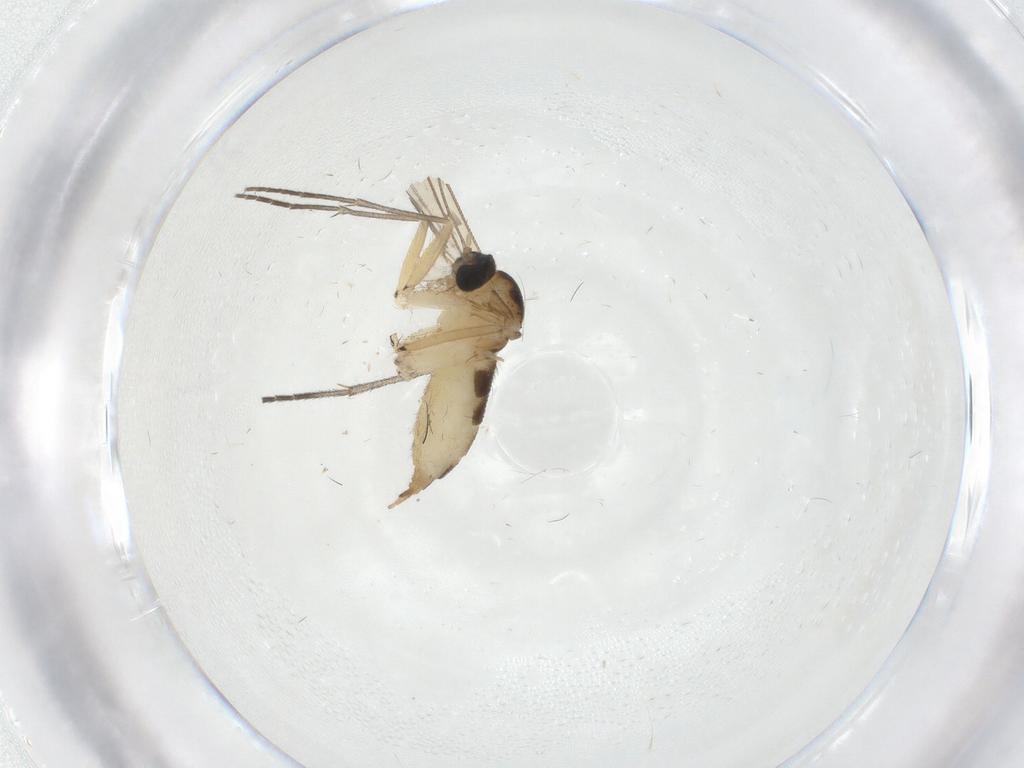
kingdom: Animalia
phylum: Arthropoda
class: Insecta
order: Diptera
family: Sciaridae
